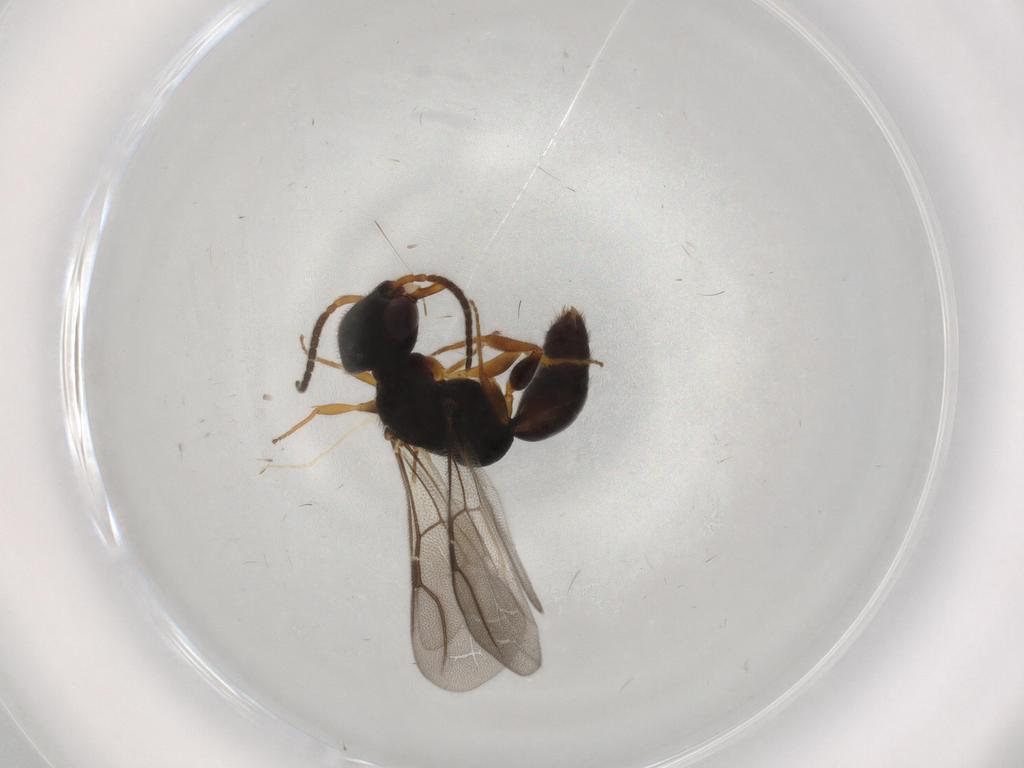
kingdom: Animalia
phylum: Arthropoda
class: Insecta
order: Hymenoptera
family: Bethylidae
